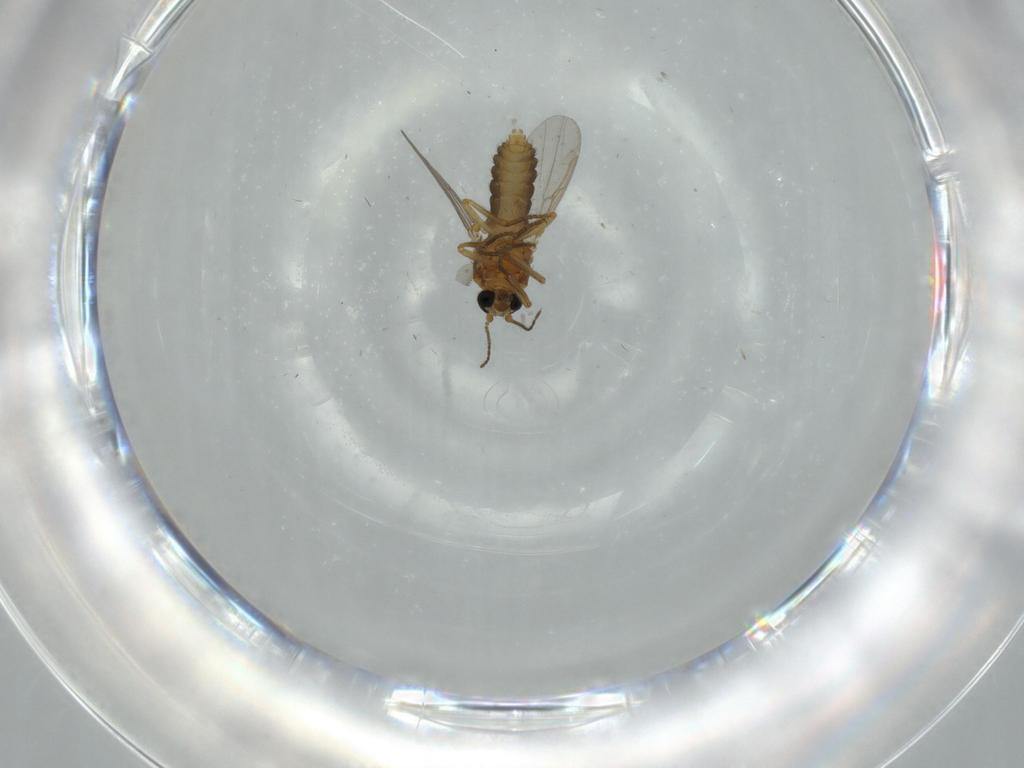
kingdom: Animalia
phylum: Arthropoda
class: Insecta
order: Diptera
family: Ceratopogonidae
